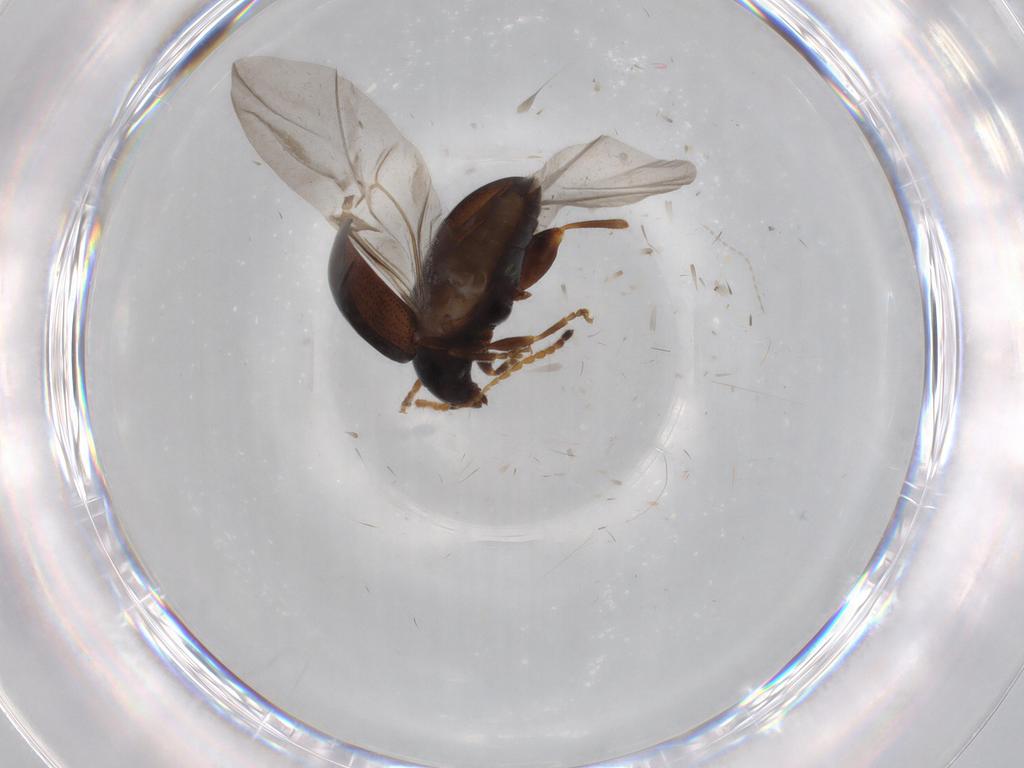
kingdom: Animalia
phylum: Arthropoda
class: Insecta
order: Coleoptera
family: Chrysomelidae
